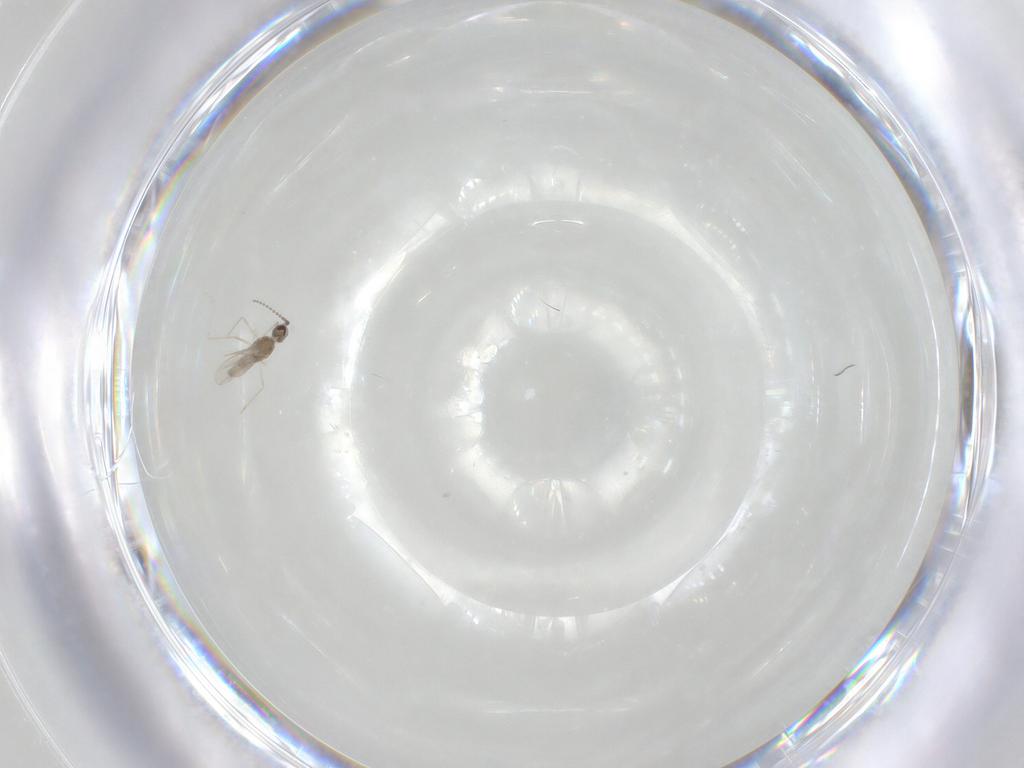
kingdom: Animalia
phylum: Arthropoda
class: Insecta
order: Diptera
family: Cecidomyiidae
